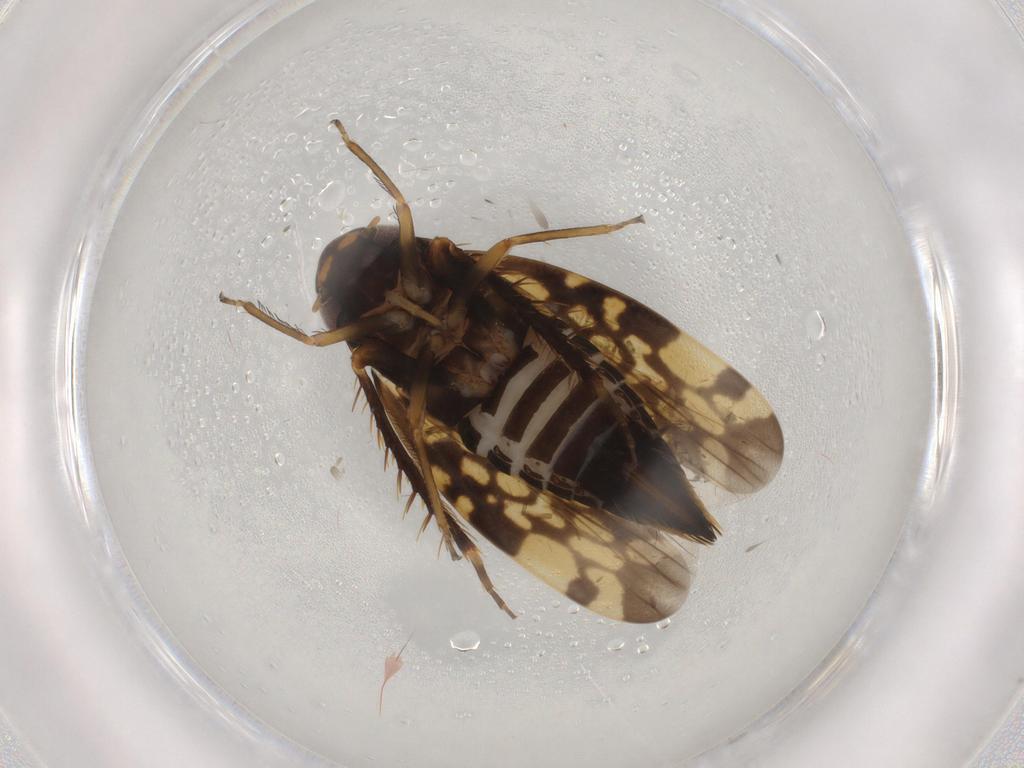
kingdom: Animalia
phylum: Arthropoda
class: Insecta
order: Hemiptera
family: Cicadellidae
